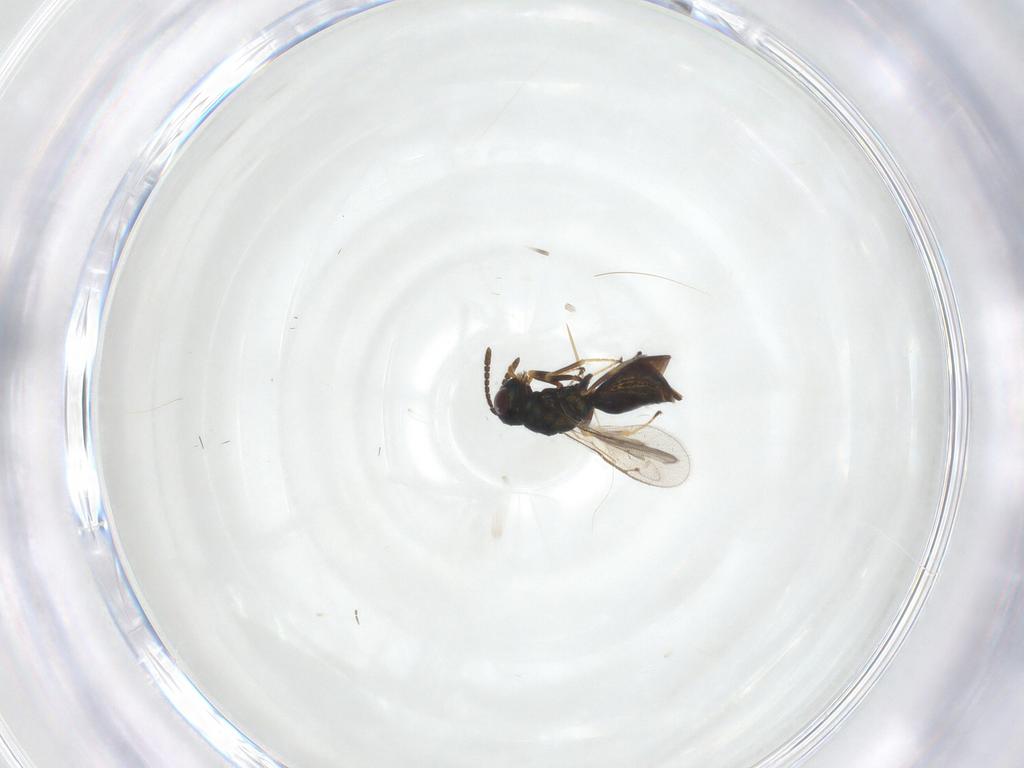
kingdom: Animalia
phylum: Arthropoda
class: Insecta
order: Hymenoptera
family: Pteromalidae
